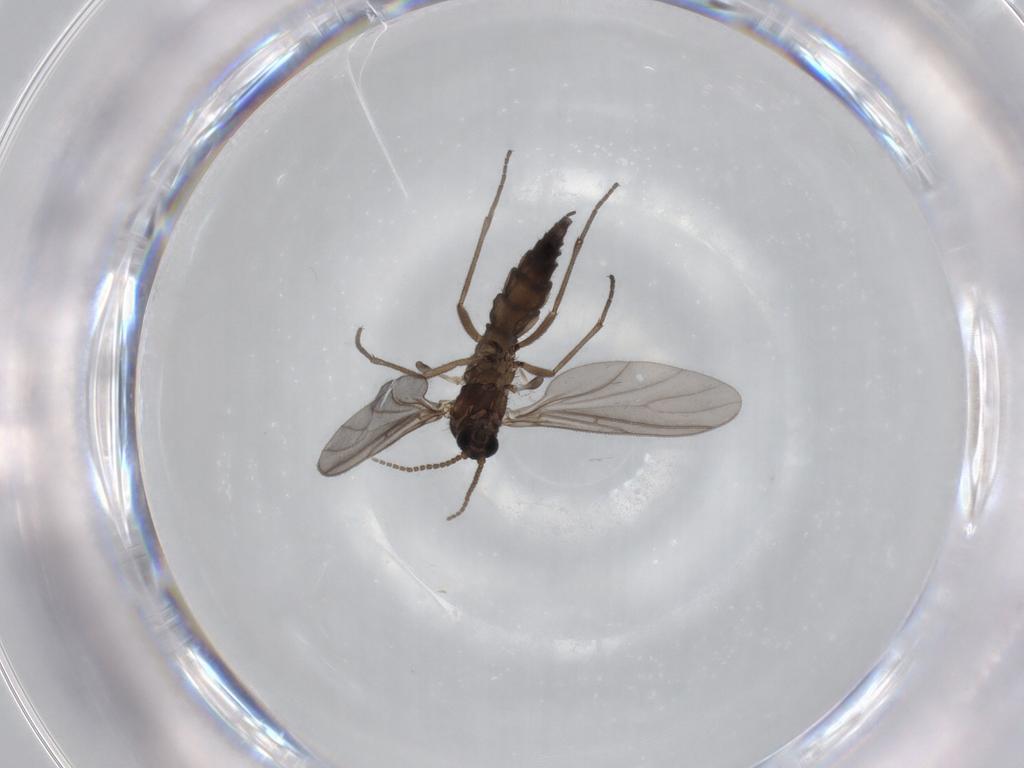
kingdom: Animalia
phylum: Arthropoda
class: Insecta
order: Diptera
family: Sciaridae
